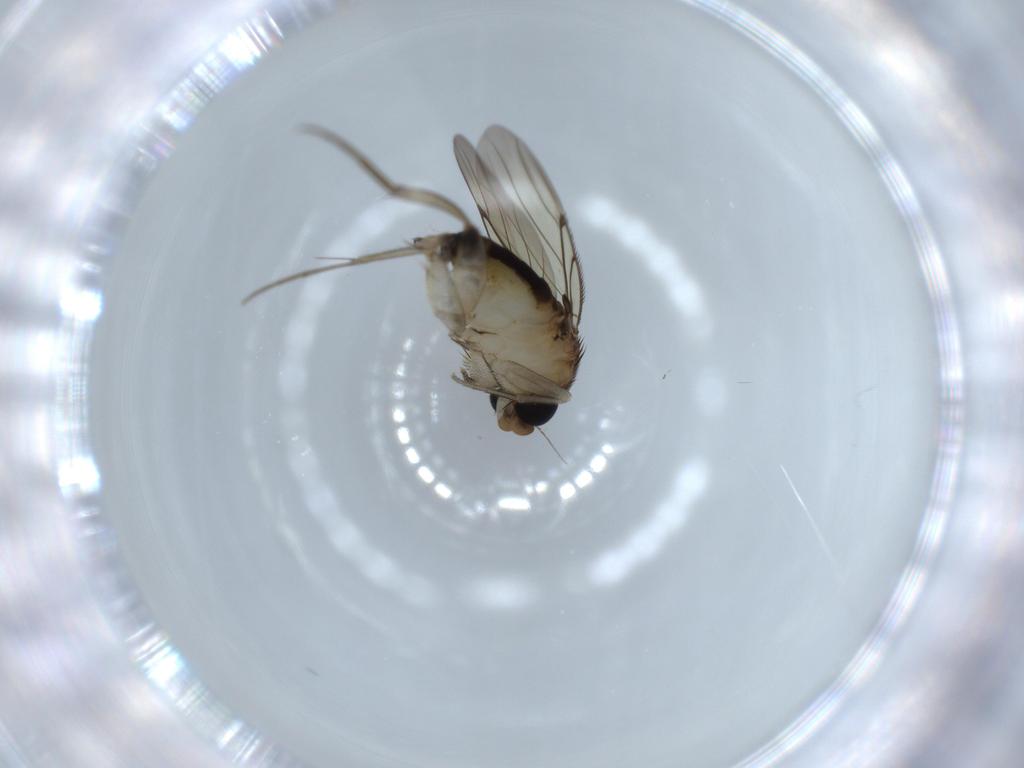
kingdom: Animalia
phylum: Arthropoda
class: Insecta
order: Diptera
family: Phoridae
